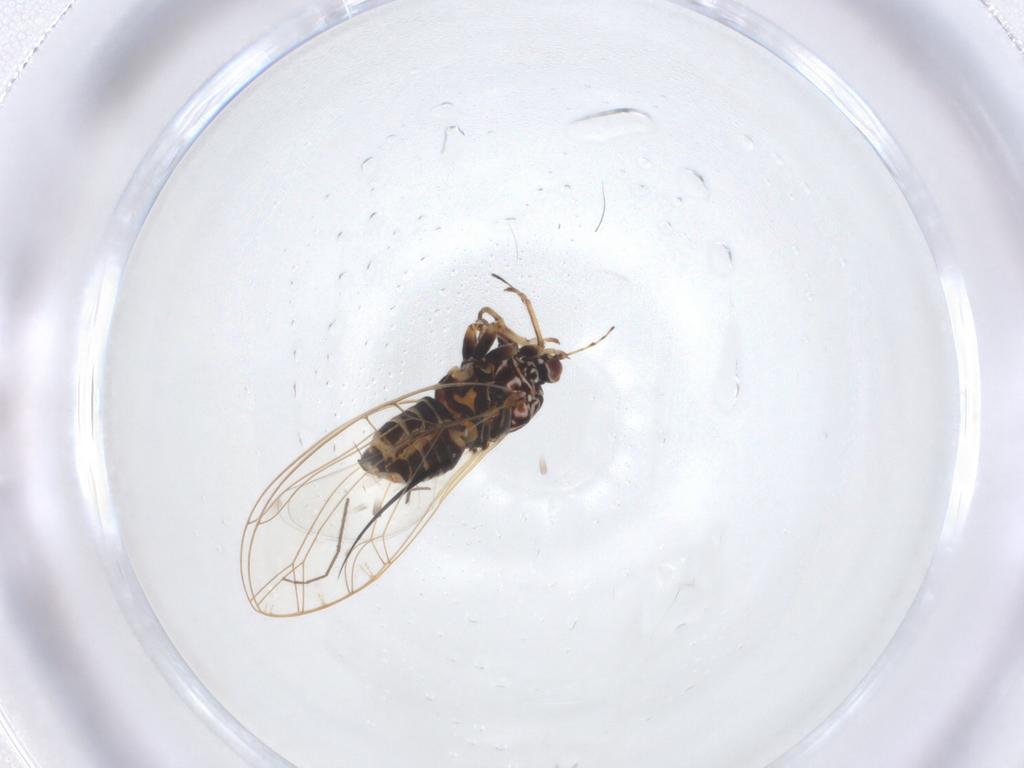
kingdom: Animalia
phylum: Arthropoda
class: Insecta
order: Hemiptera
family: Triozidae
